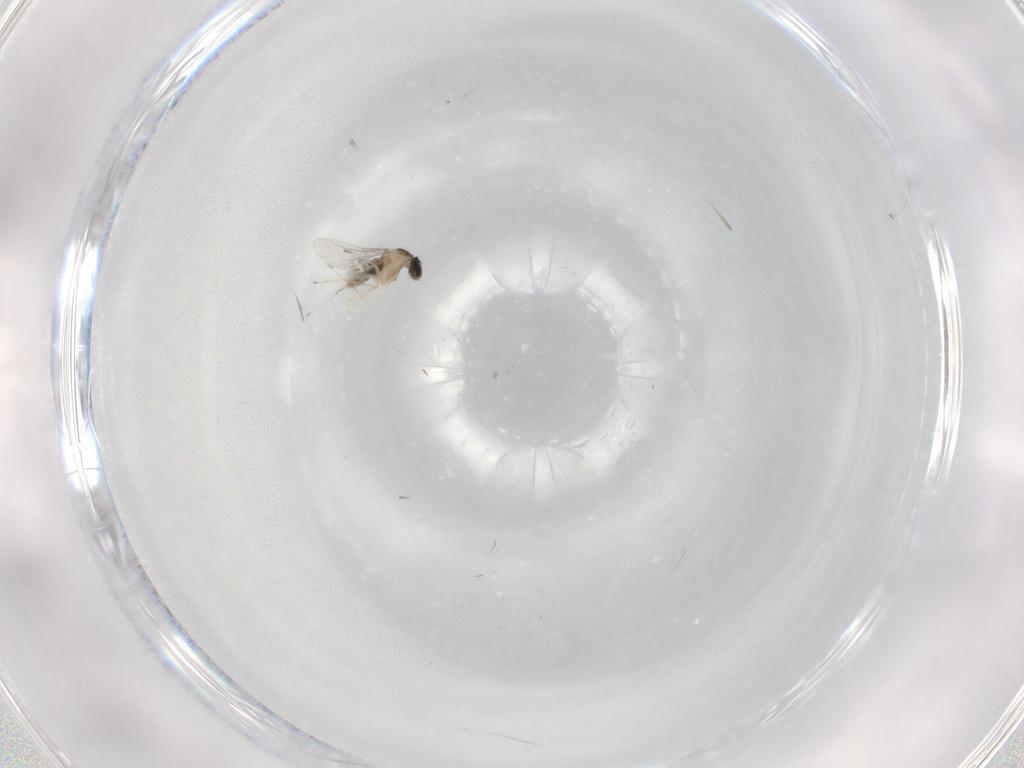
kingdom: Animalia
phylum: Arthropoda
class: Insecta
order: Diptera
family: Cecidomyiidae
